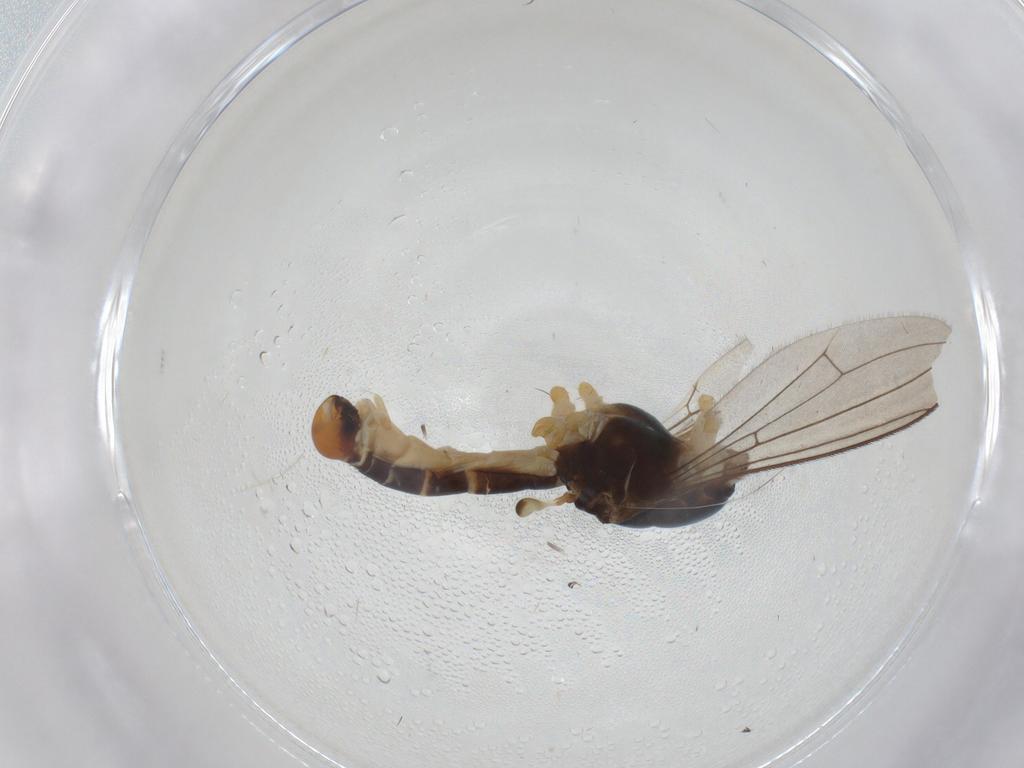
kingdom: Animalia
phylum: Arthropoda
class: Insecta
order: Diptera
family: Micropezidae
